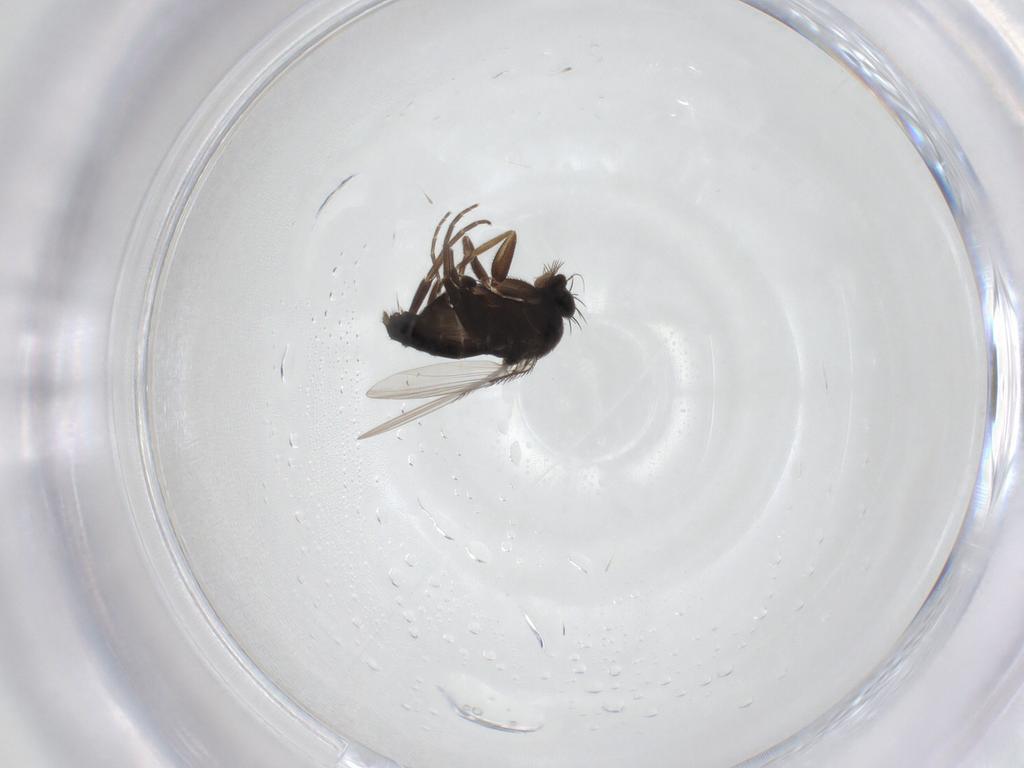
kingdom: Animalia
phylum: Arthropoda
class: Insecta
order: Diptera
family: Phoridae
